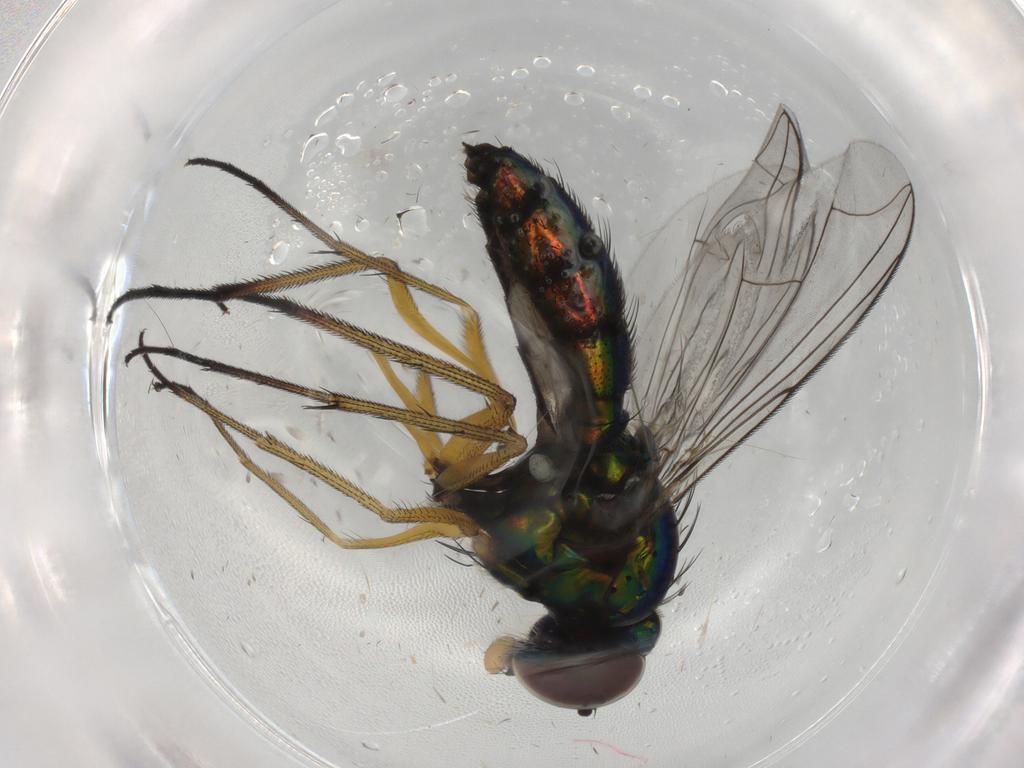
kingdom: Animalia
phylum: Arthropoda
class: Insecta
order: Diptera
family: Dolichopodidae
